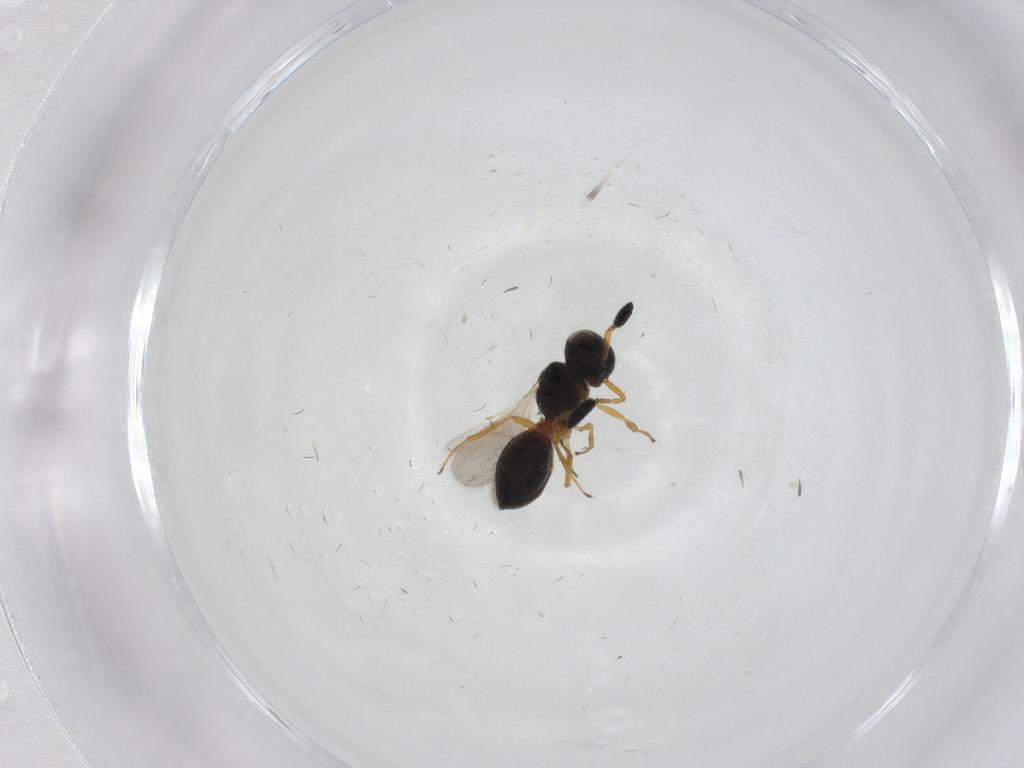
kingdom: Animalia
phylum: Arthropoda
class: Insecta
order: Hymenoptera
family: Scelionidae
